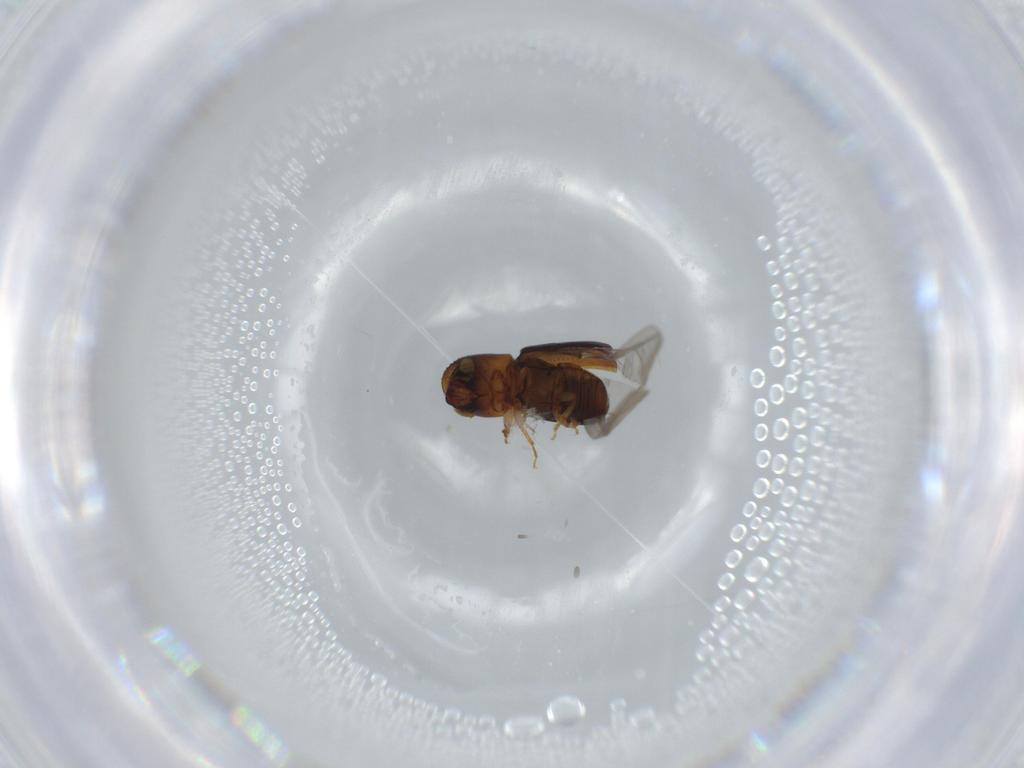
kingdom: Animalia
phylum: Arthropoda
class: Insecta
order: Coleoptera
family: Curculionidae
